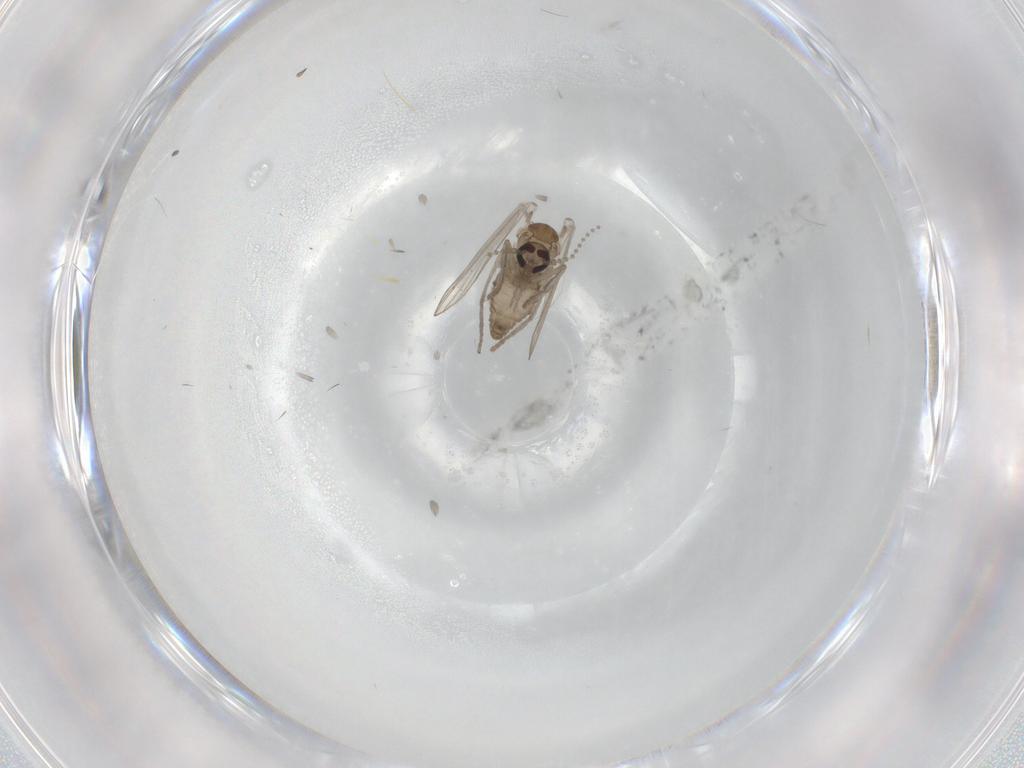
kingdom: Animalia
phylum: Arthropoda
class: Insecta
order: Diptera
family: Psychodidae
